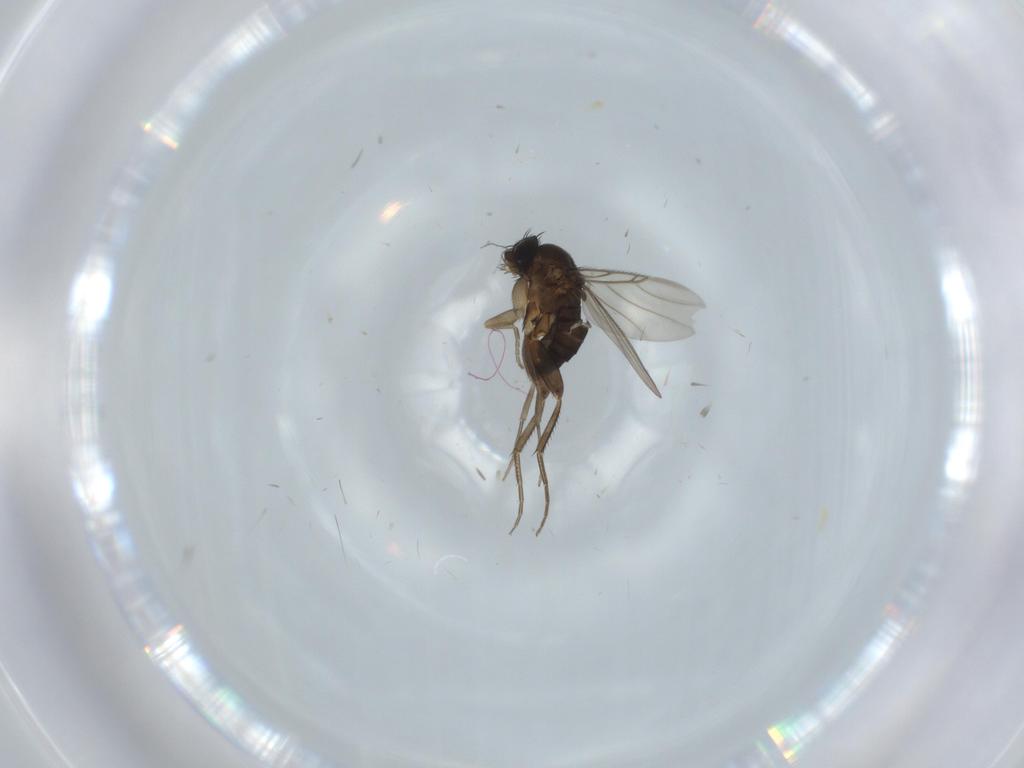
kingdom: Animalia
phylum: Arthropoda
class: Insecta
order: Diptera
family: Phoridae
